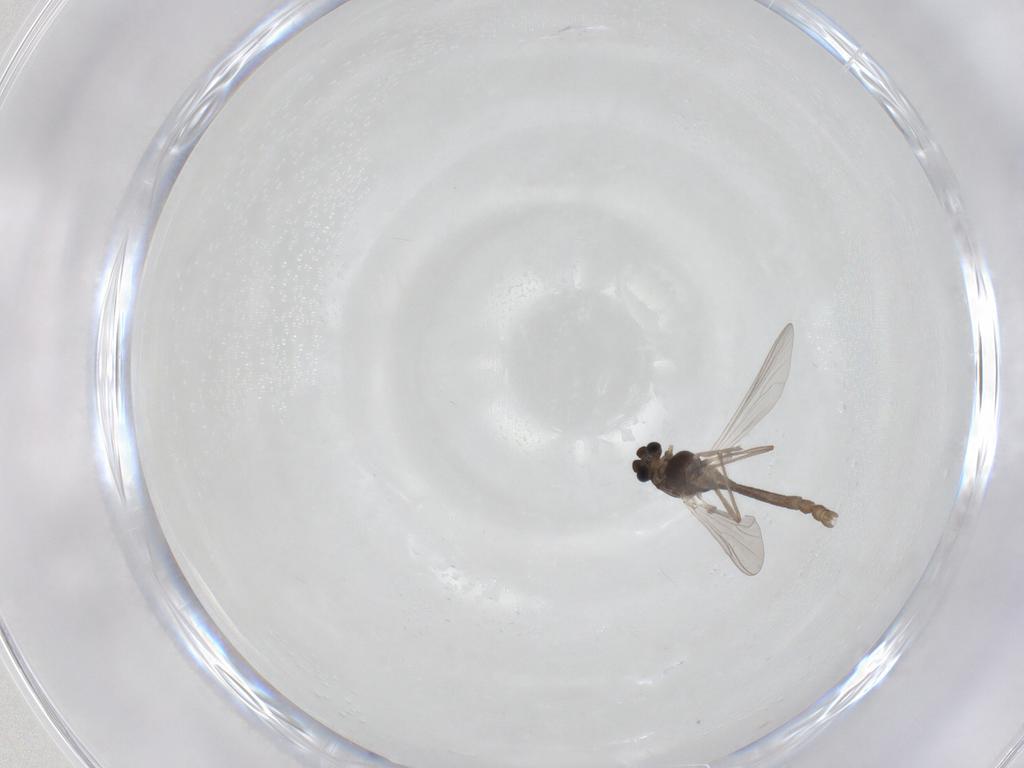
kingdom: Animalia
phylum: Arthropoda
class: Insecta
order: Diptera
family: Chironomidae
